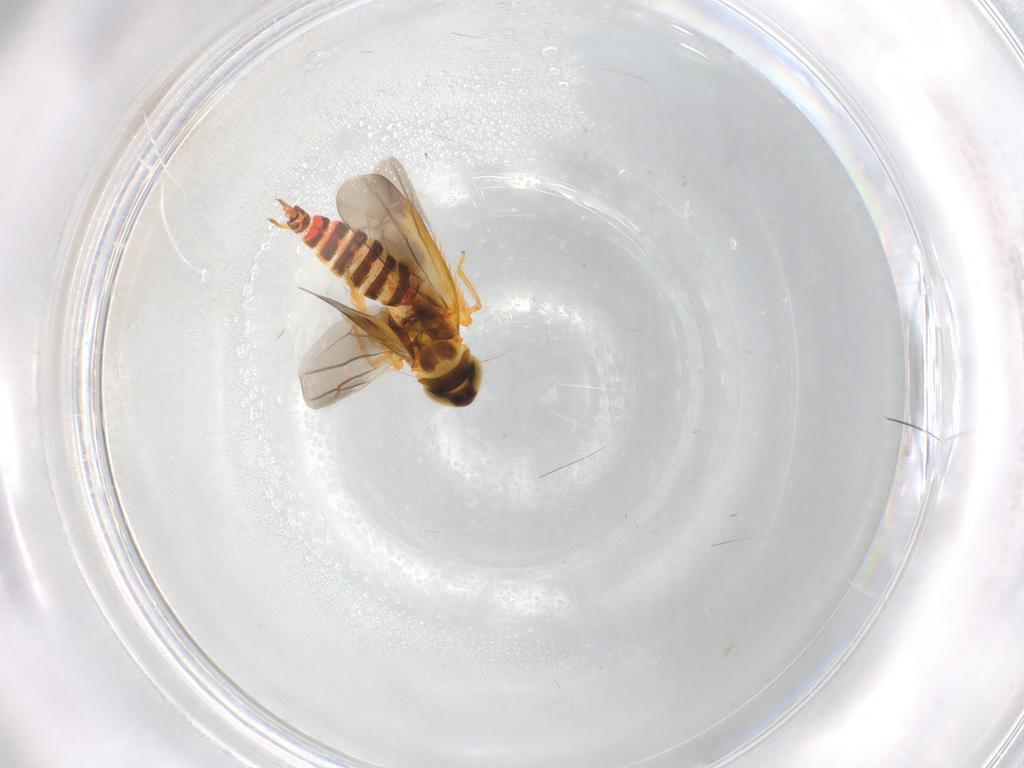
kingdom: Animalia
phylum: Arthropoda
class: Insecta
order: Hemiptera
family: Cicadellidae
